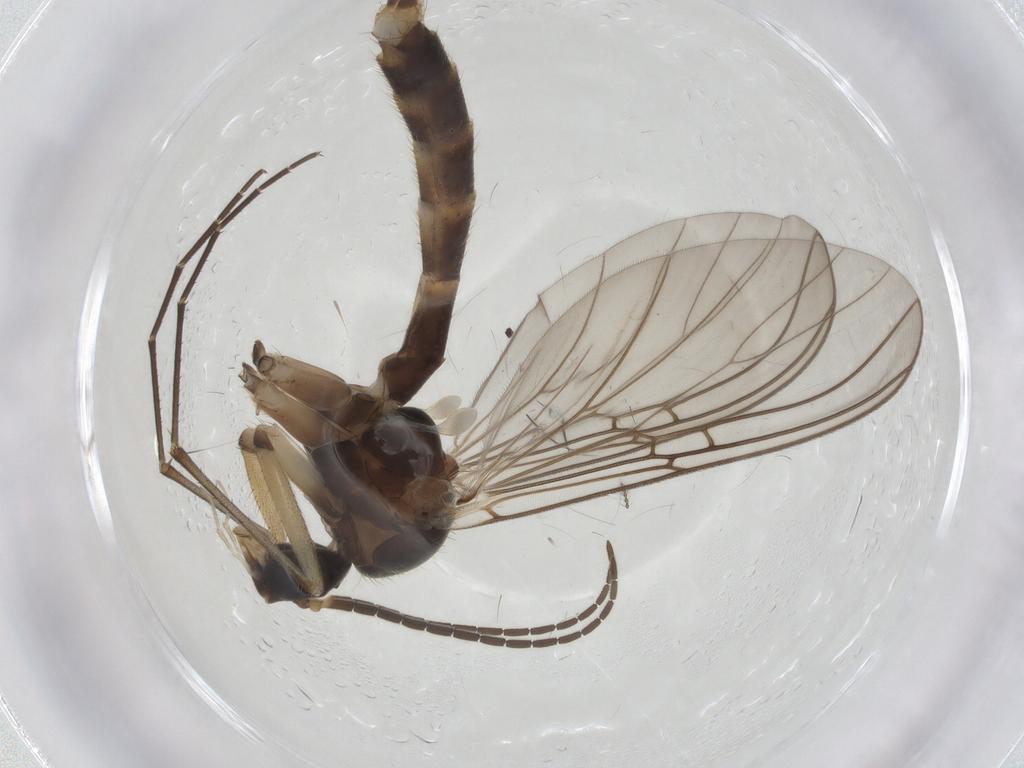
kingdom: Animalia
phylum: Arthropoda
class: Insecta
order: Diptera
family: Mycetophilidae
